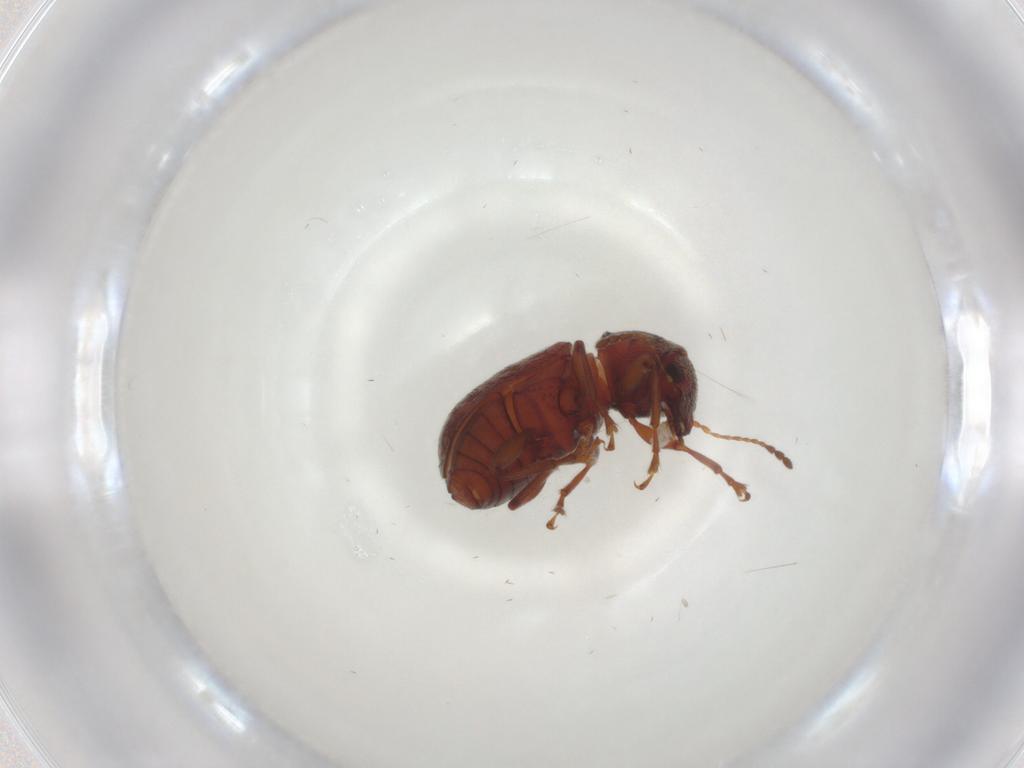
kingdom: Animalia
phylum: Arthropoda
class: Insecta
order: Coleoptera
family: Anthribidae
